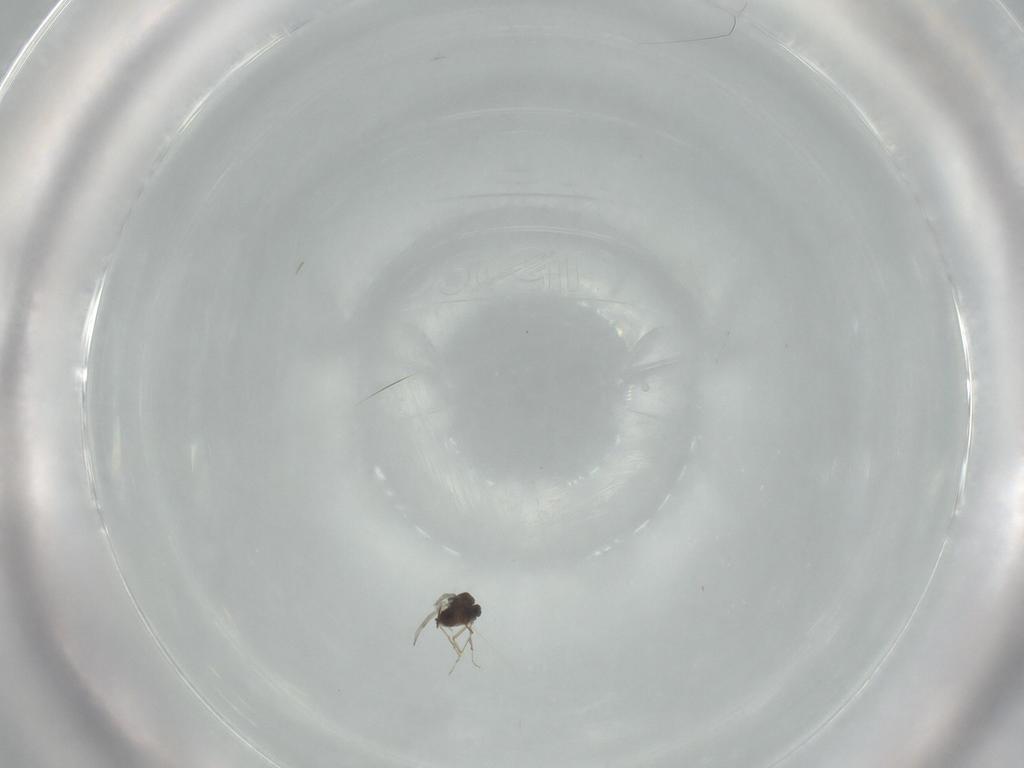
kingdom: Animalia
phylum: Arthropoda
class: Insecta
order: Diptera
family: Ceratopogonidae
